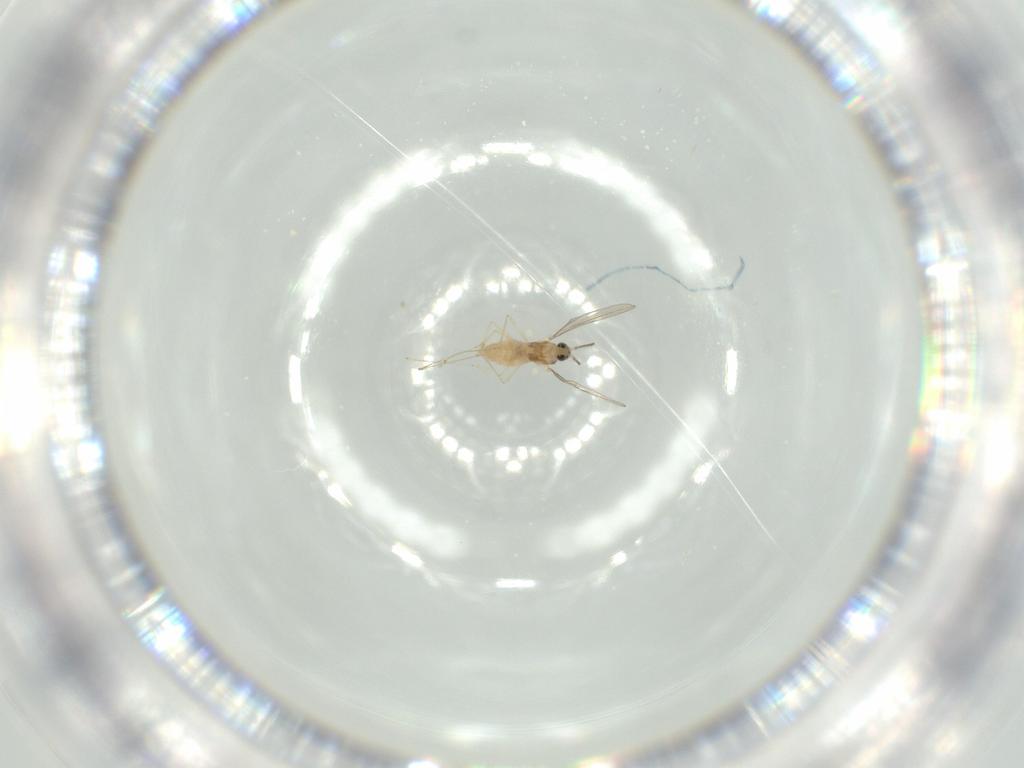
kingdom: Animalia
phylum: Arthropoda
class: Insecta
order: Diptera
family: Cecidomyiidae
